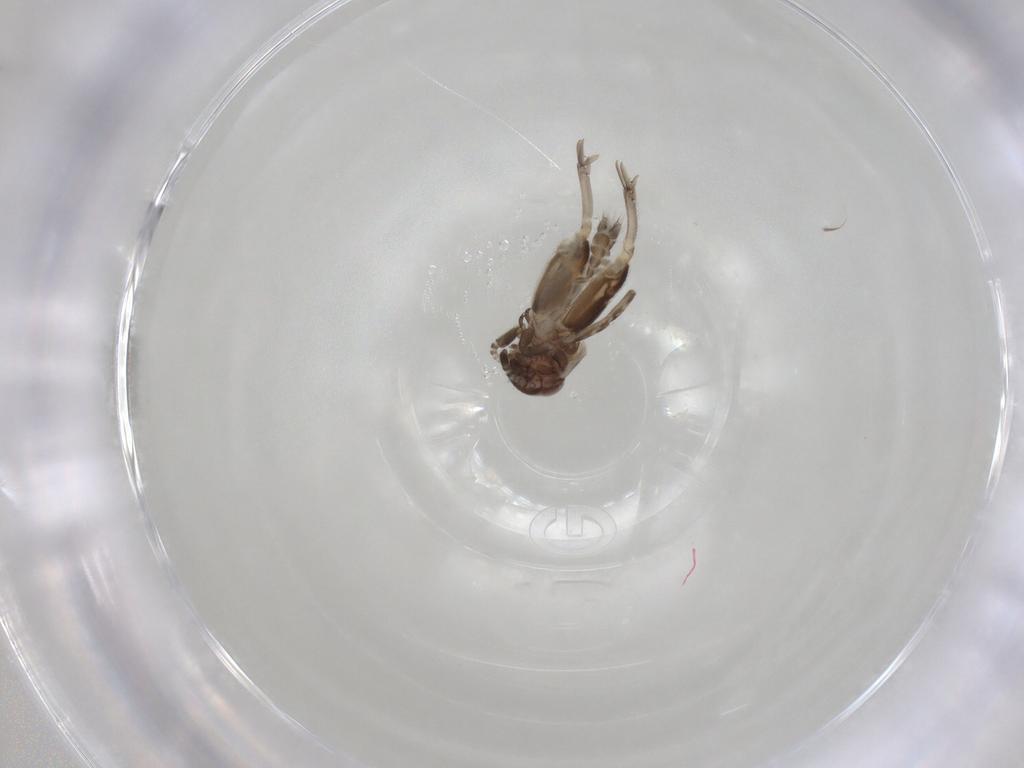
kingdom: Animalia
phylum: Arthropoda
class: Insecta
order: Orthoptera
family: Ripipterygidae
